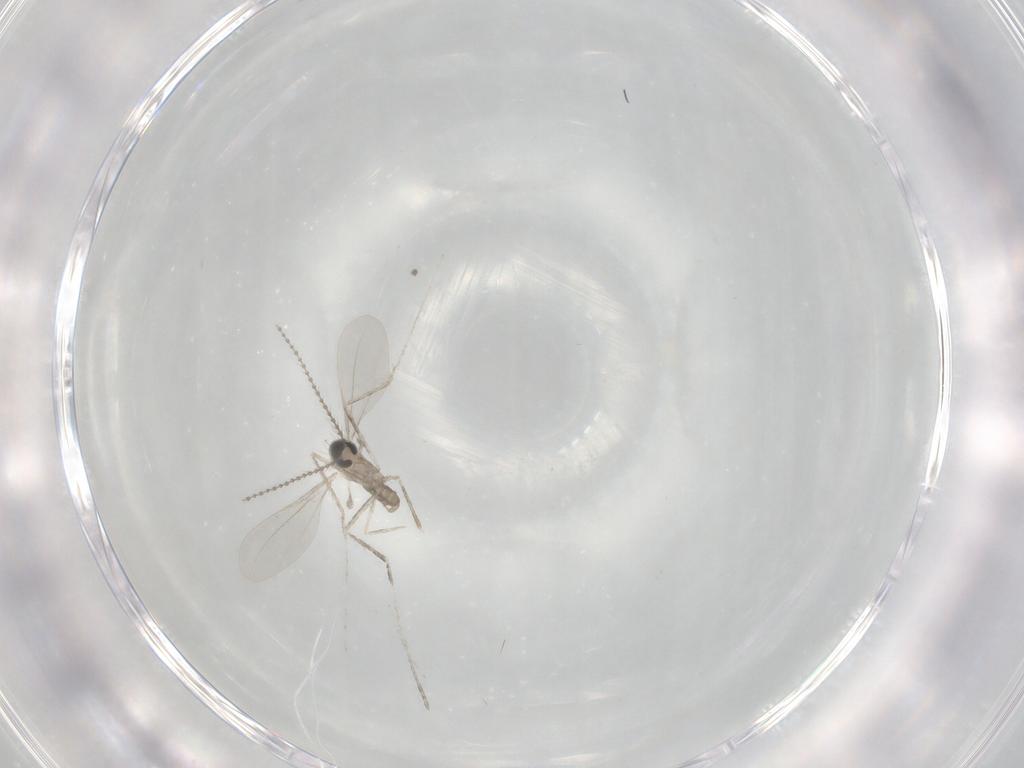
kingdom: Animalia
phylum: Arthropoda
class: Insecta
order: Diptera
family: Cecidomyiidae
